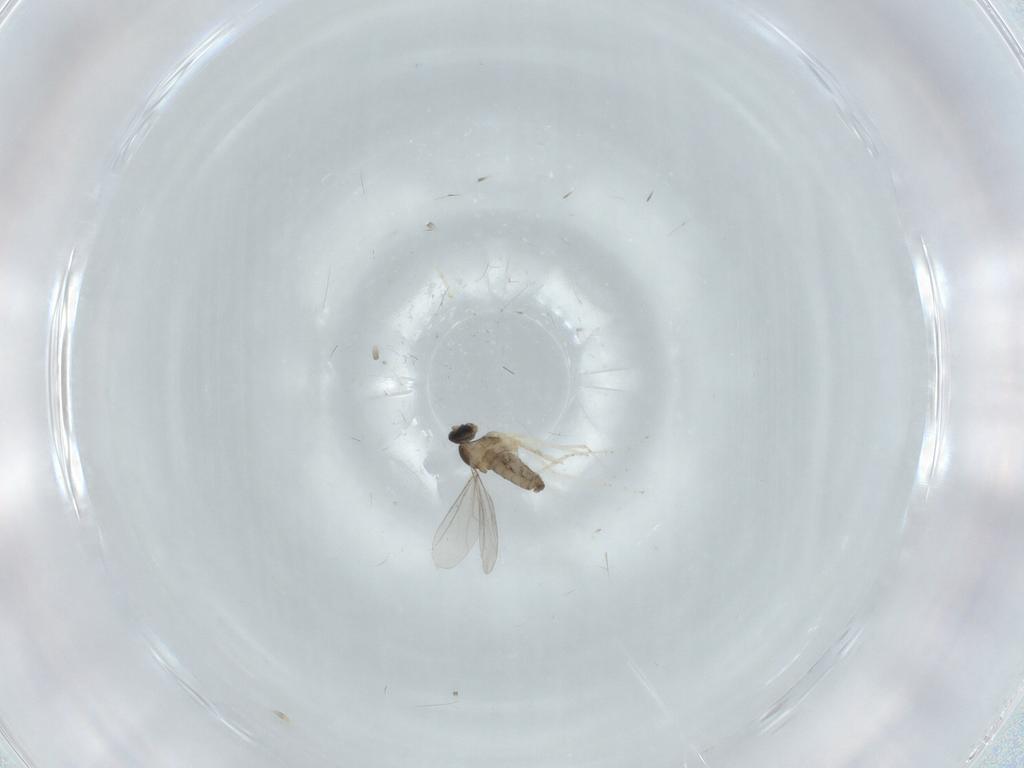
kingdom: Animalia
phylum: Arthropoda
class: Insecta
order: Diptera
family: Cecidomyiidae
